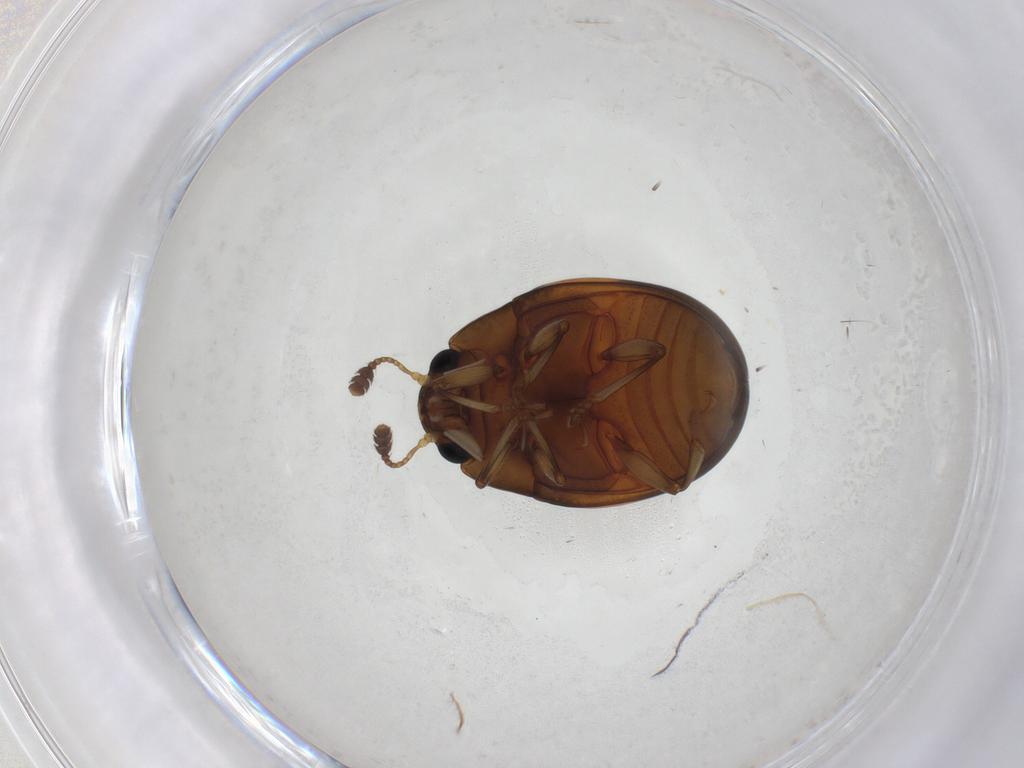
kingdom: Animalia
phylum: Arthropoda
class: Insecta
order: Coleoptera
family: Erotylidae
